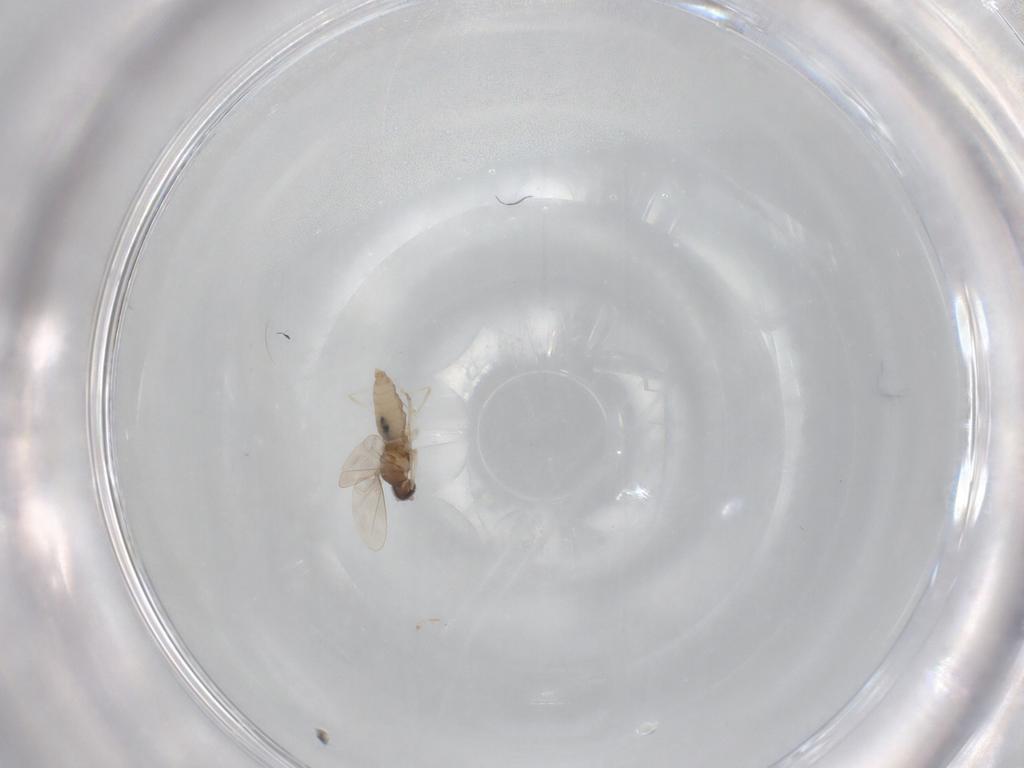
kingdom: Animalia
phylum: Arthropoda
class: Insecta
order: Diptera
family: Cecidomyiidae
